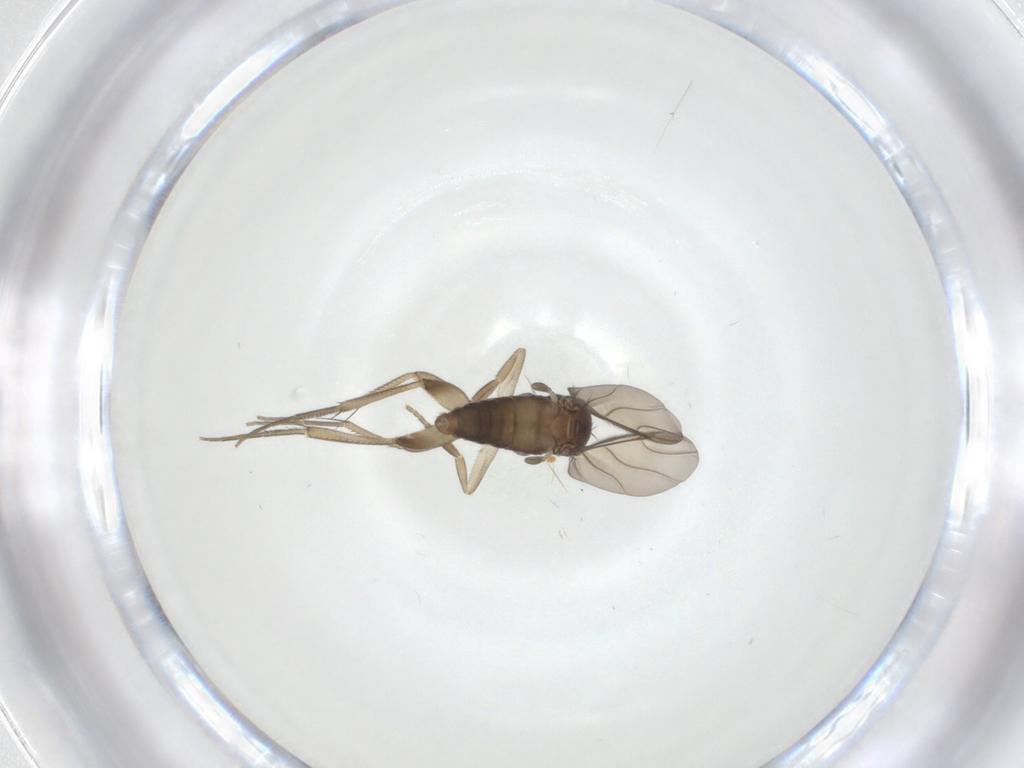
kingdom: Animalia
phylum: Arthropoda
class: Insecta
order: Diptera
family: Phoridae
